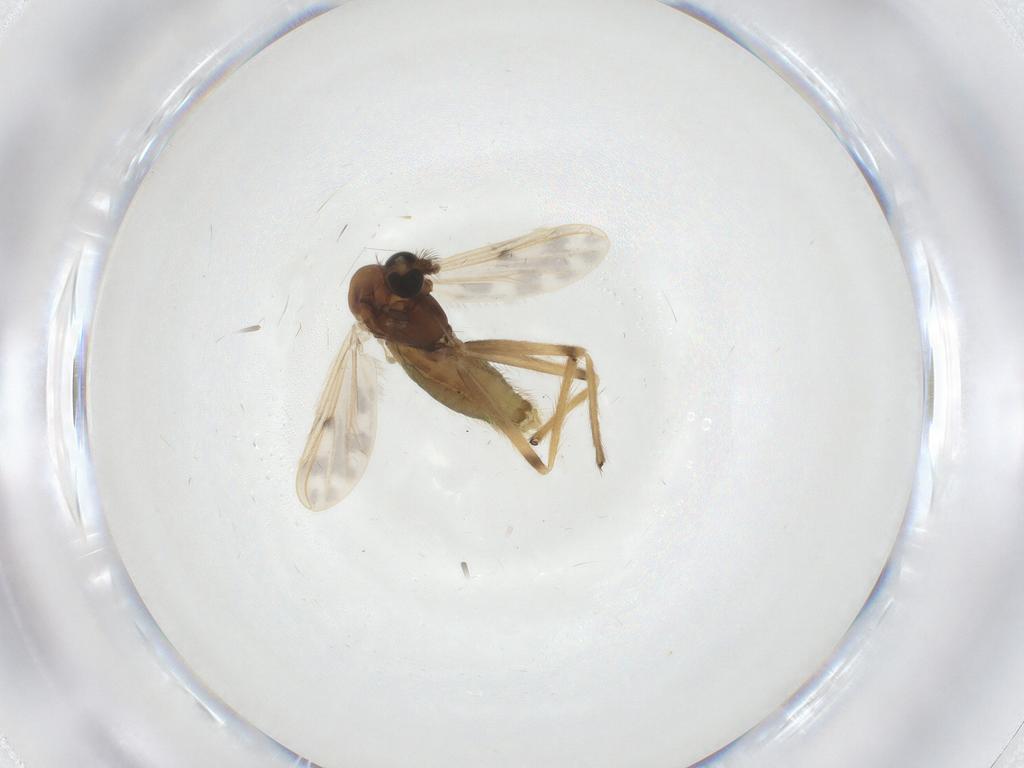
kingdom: Animalia
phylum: Arthropoda
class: Insecta
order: Diptera
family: Chironomidae
